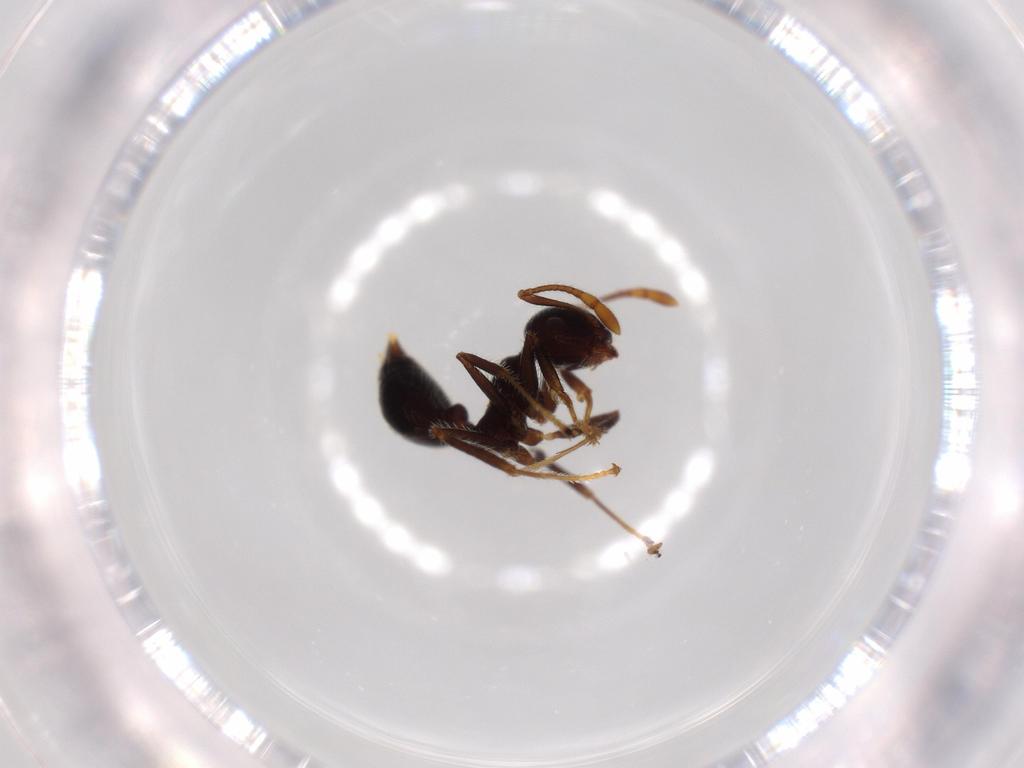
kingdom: Animalia
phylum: Arthropoda
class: Insecta
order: Hymenoptera
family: Formicidae
